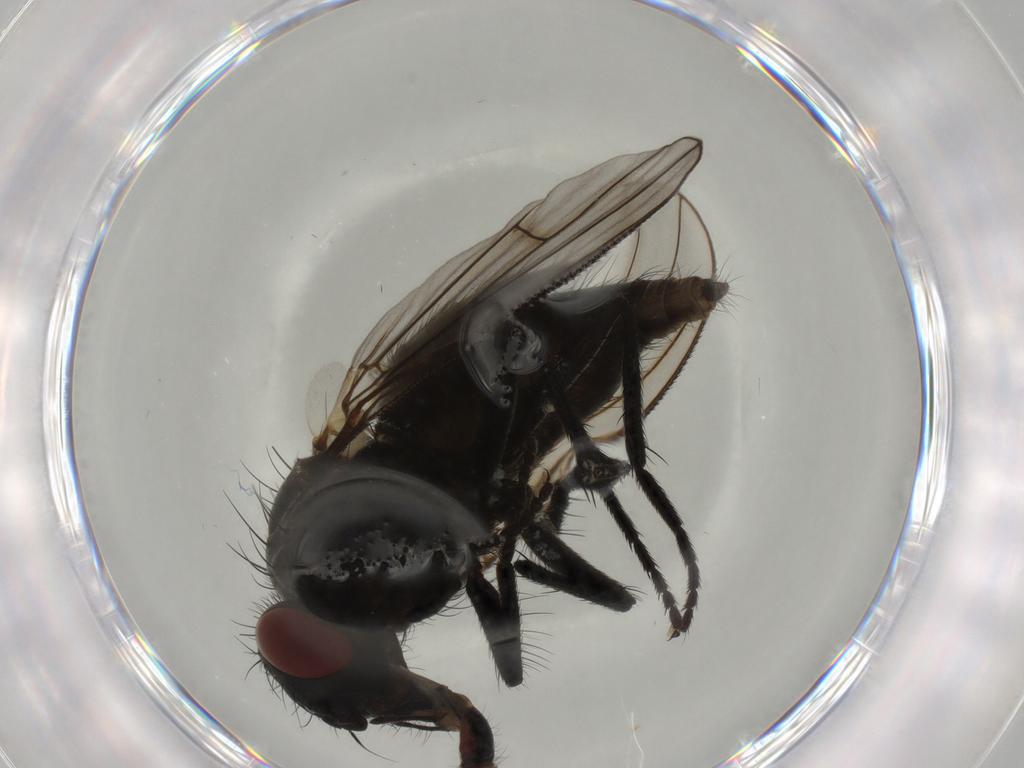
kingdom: Animalia
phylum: Arthropoda
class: Insecta
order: Diptera
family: Muscidae
